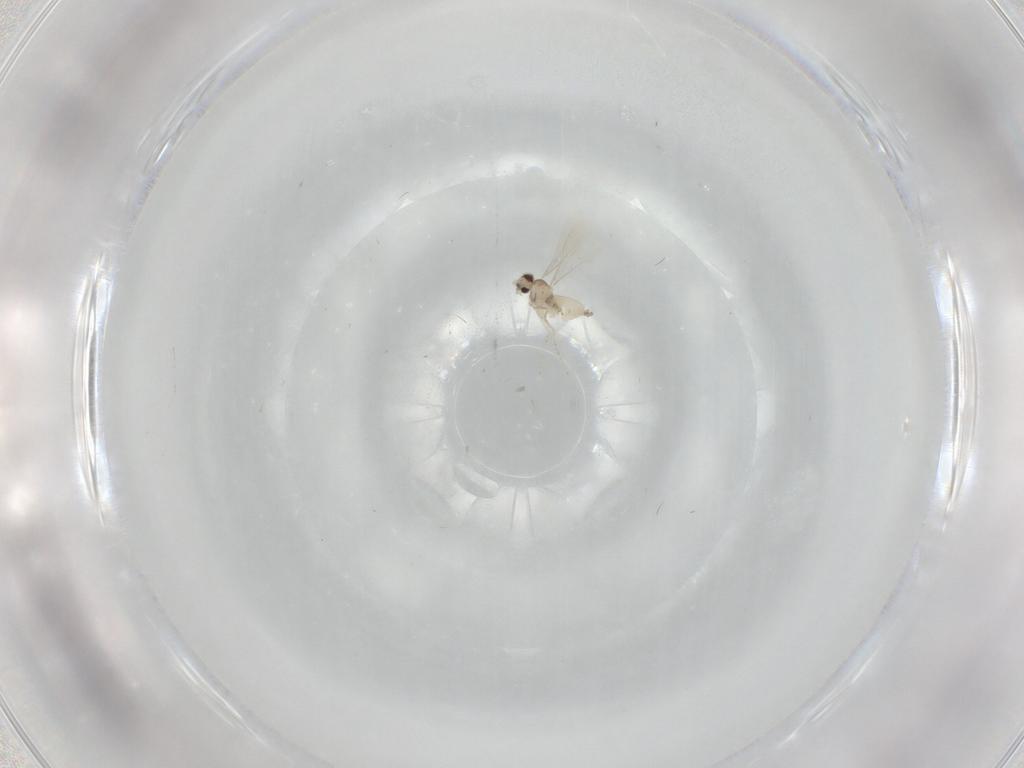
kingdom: Animalia
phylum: Arthropoda
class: Insecta
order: Diptera
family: Cecidomyiidae
